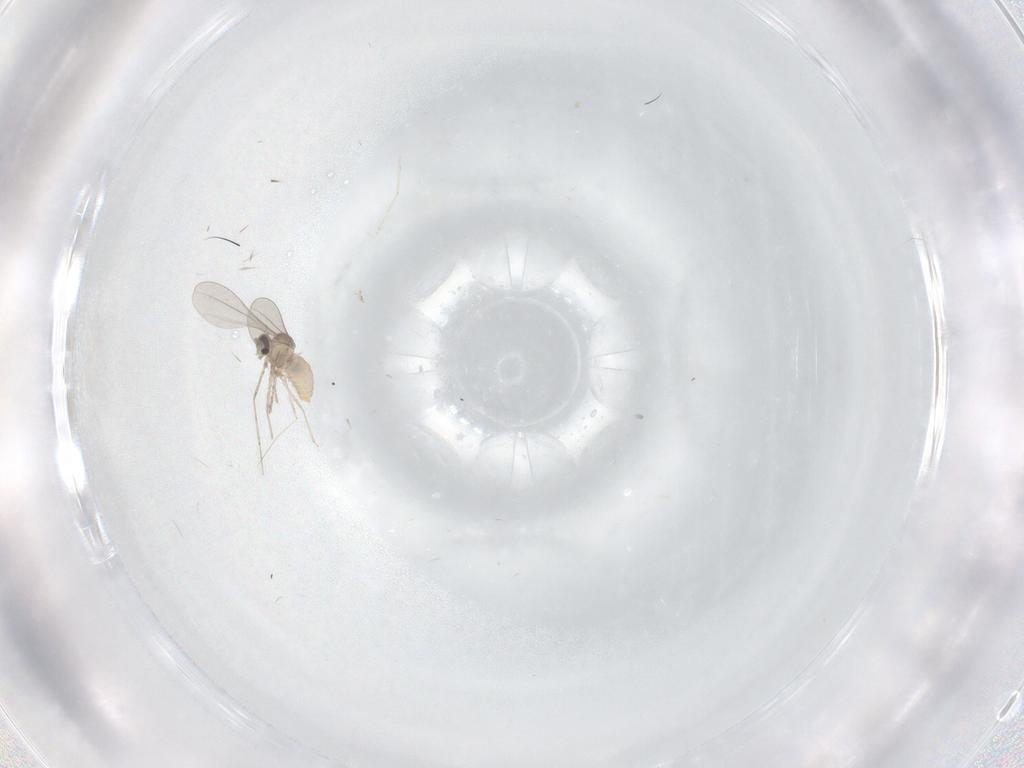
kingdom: Animalia
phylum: Arthropoda
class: Insecta
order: Diptera
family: Cecidomyiidae
